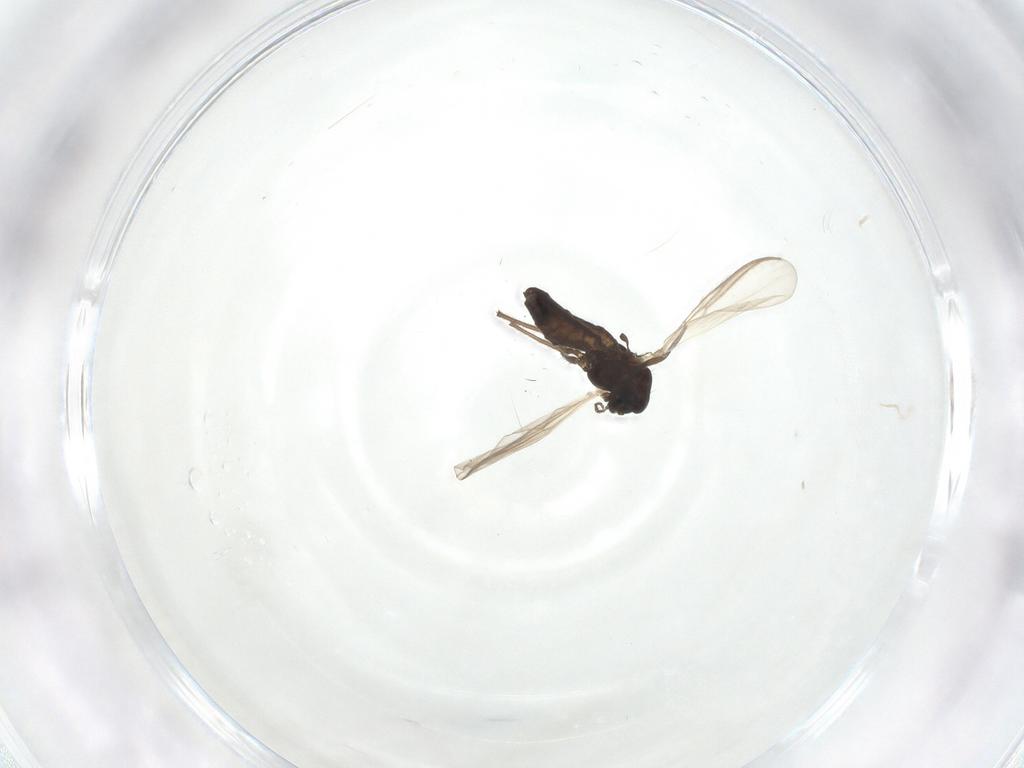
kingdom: Animalia
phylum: Arthropoda
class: Insecta
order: Diptera
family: Chironomidae
